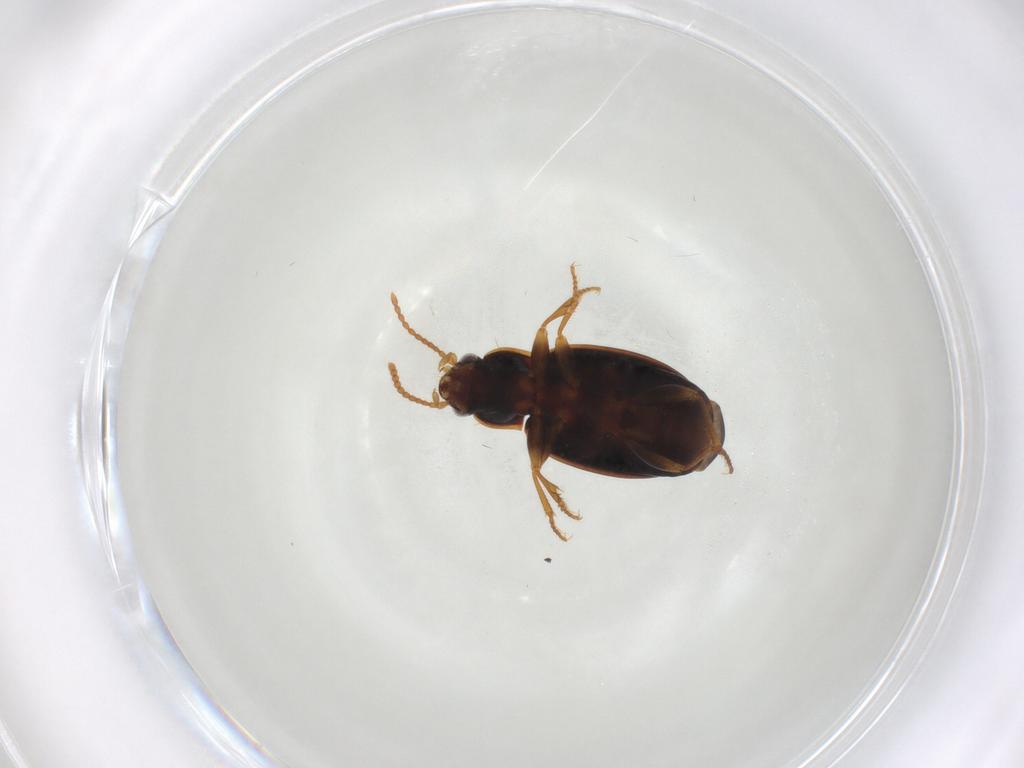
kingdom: Animalia
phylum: Arthropoda
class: Insecta
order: Coleoptera
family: Carabidae
